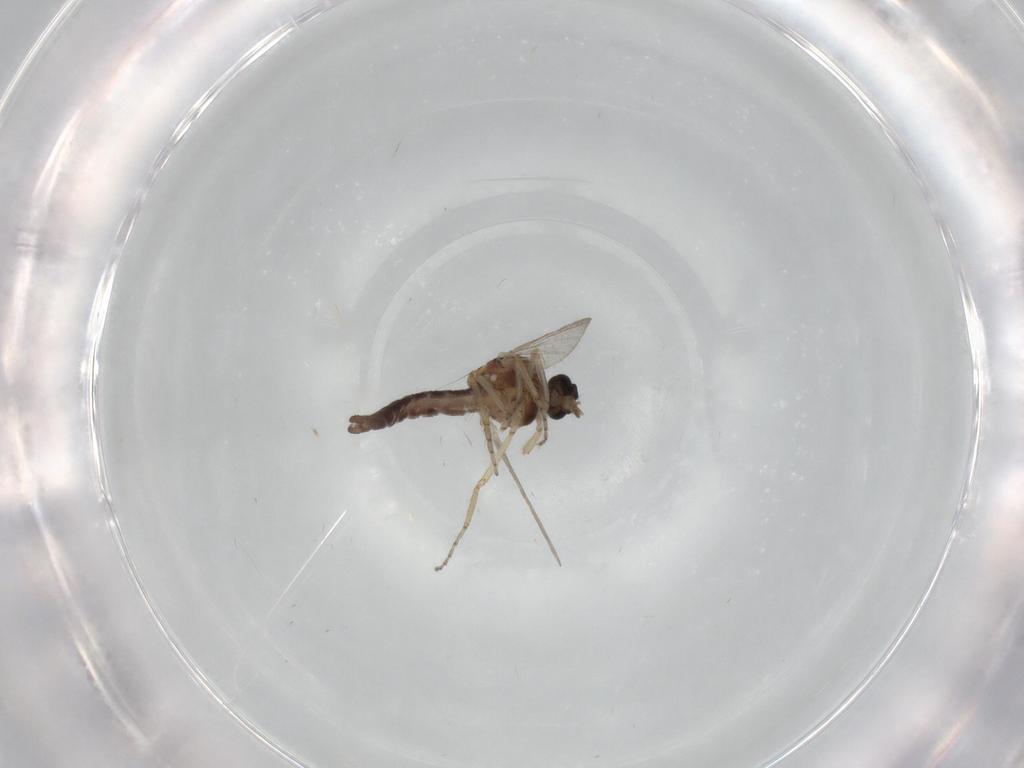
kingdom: Animalia
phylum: Arthropoda
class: Insecta
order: Diptera
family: Ceratopogonidae
